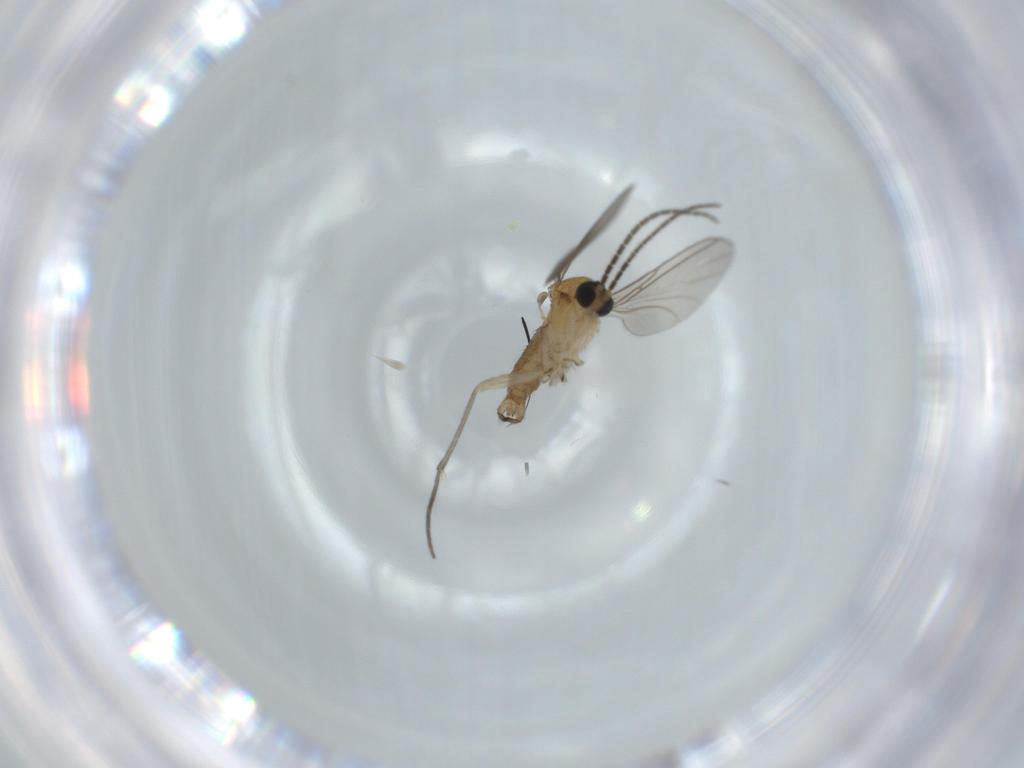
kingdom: Animalia
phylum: Arthropoda
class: Insecta
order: Diptera
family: Sciaridae
